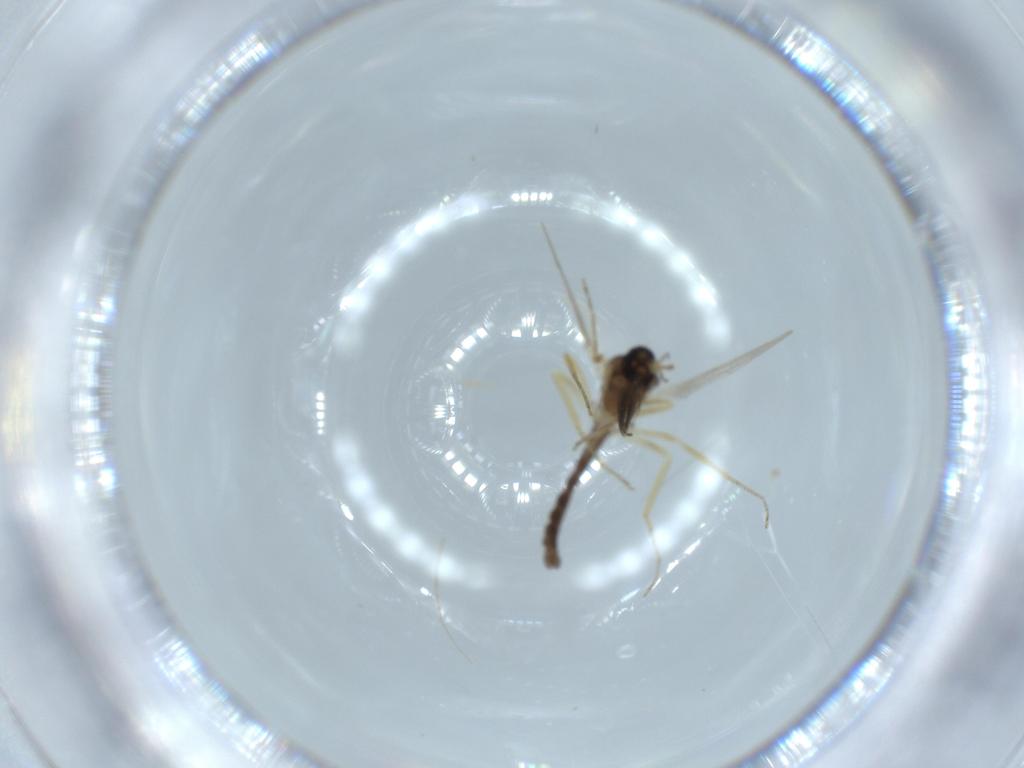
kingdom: Animalia
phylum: Arthropoda
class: Insecta
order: Diptera
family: Ceratopogonidae
